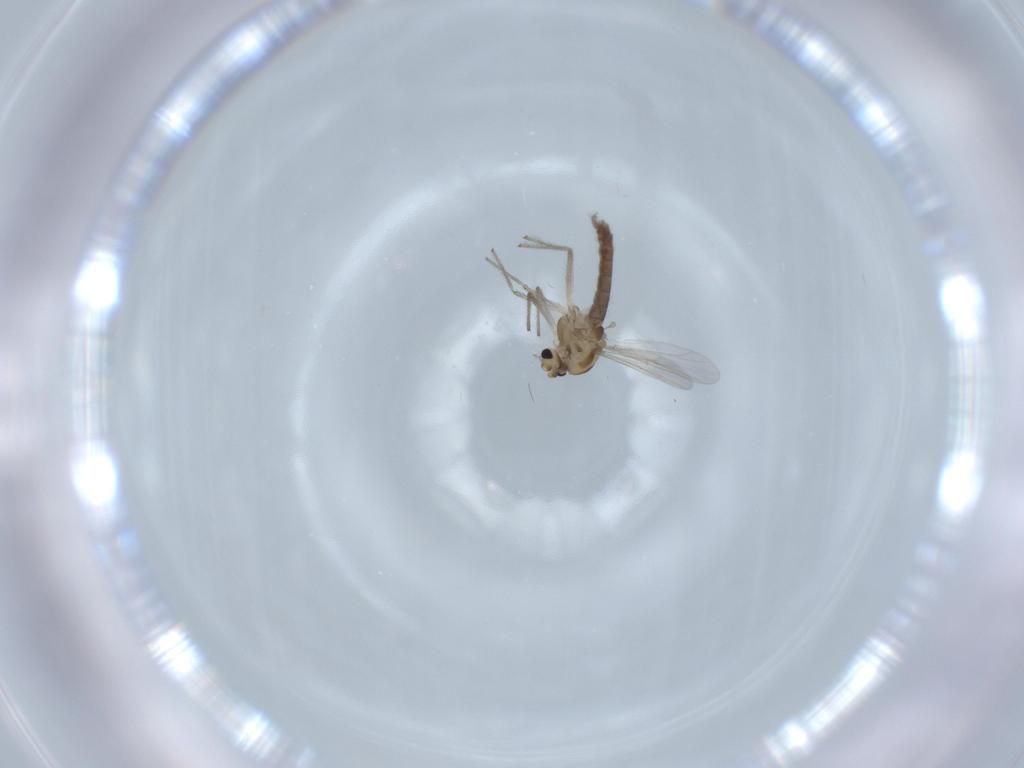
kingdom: Animalia
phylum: Arthropoda
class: Insecta
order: Diptera
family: Chironomidae
